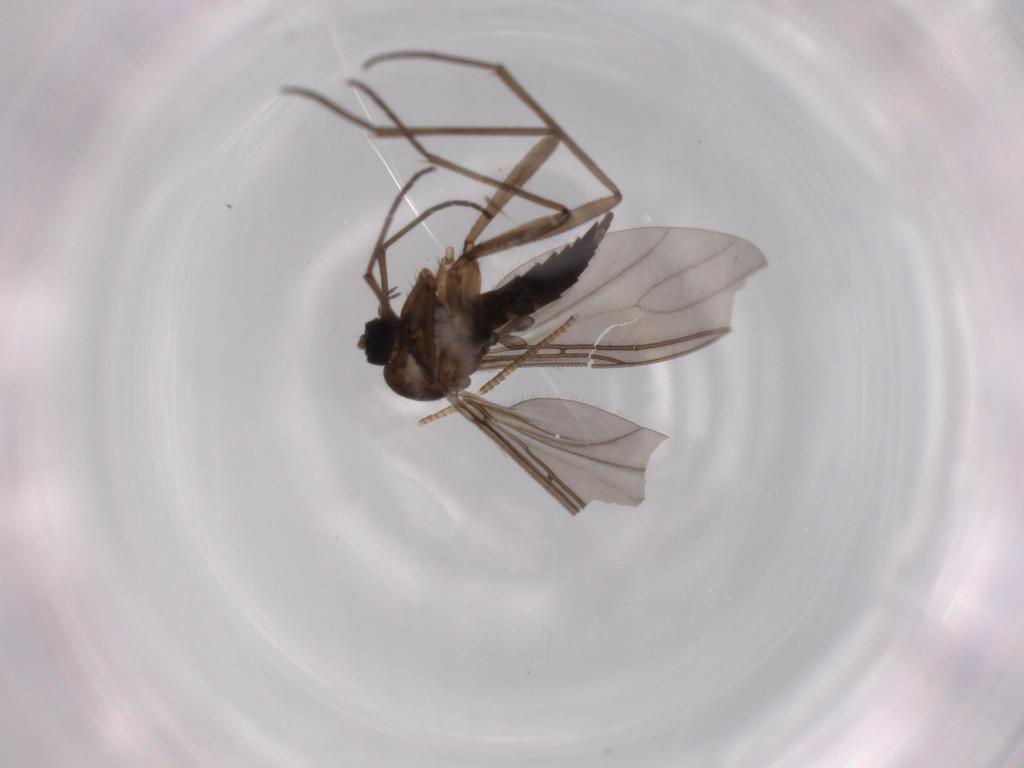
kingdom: Animalia
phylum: Arthropoda
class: Insecta
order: Diptera
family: Sciaridae
